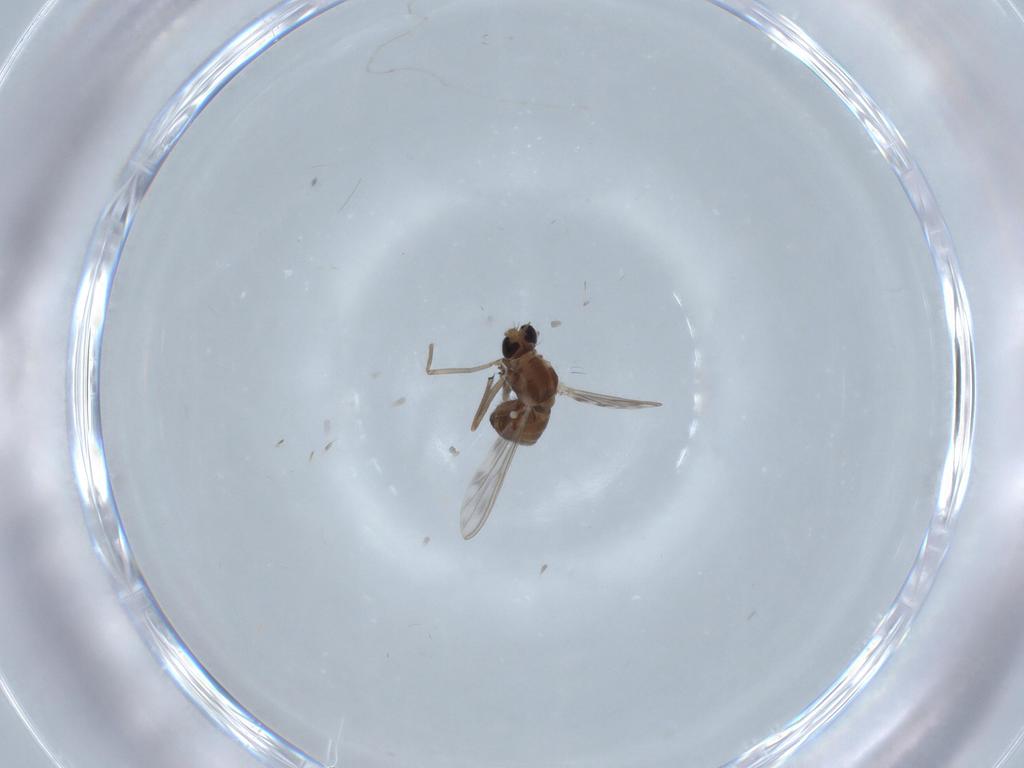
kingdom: Animalia
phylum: Arthropoda
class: Insecta
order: Diptera
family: Chironomidae
